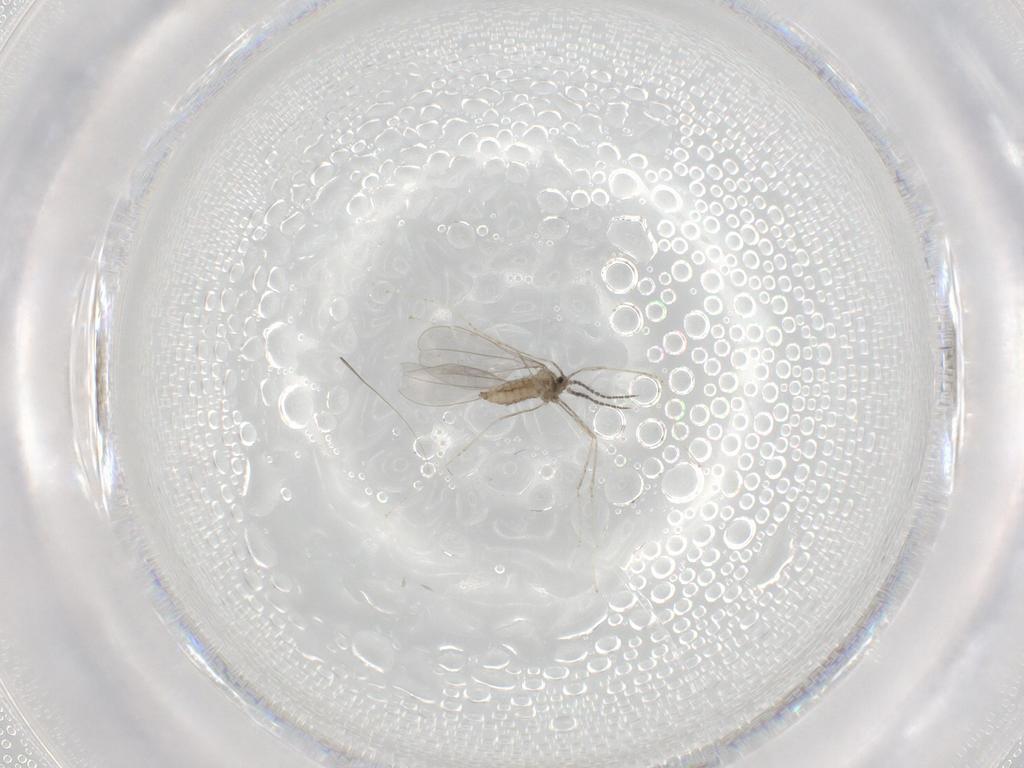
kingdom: Animalia
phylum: Arthropoda
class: Insecta
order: Diptera
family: Cecidomyiidae
